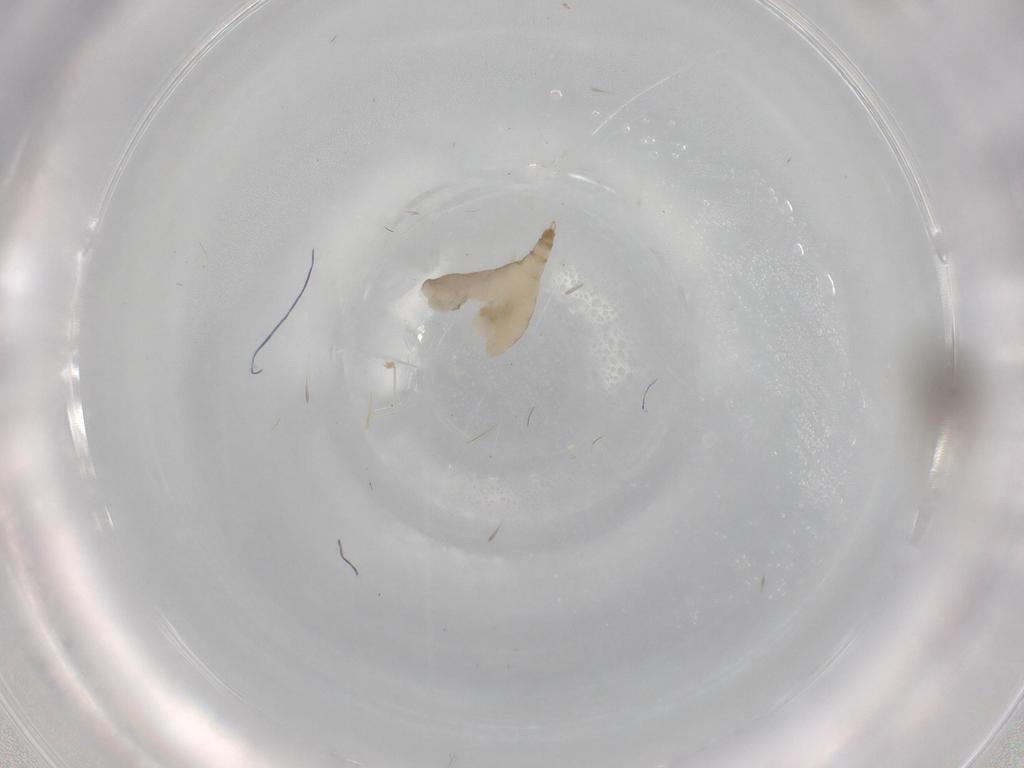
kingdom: Animalia
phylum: Arthropoda
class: Insecta
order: Diptera
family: Cecidomyiidae
